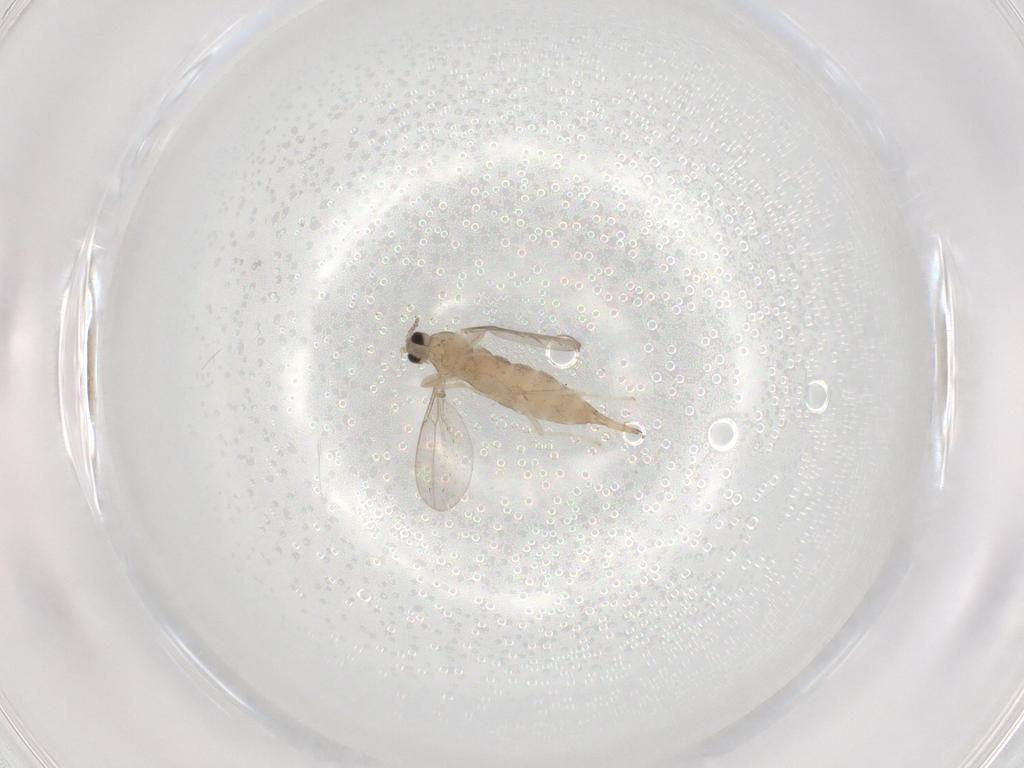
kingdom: Animalia
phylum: Arthropoda
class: Insecta
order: Diptera
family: Cecidomyiidae
